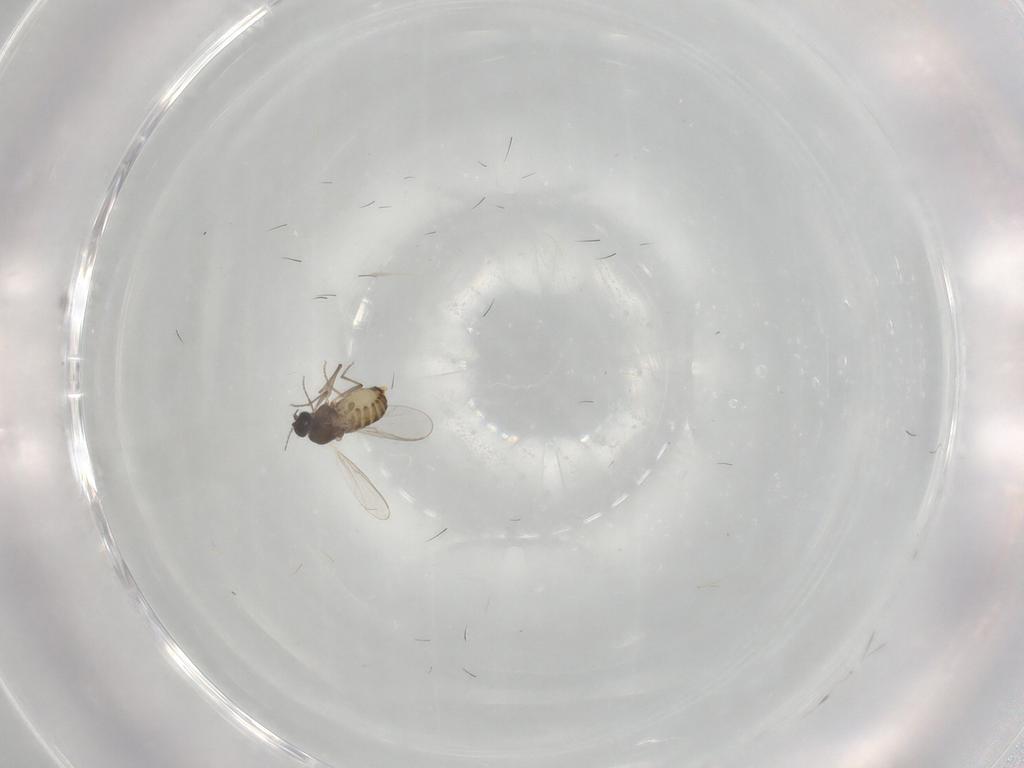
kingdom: Animalia
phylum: Arthropoda
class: Insecta
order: Diptera
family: Chironomidae
